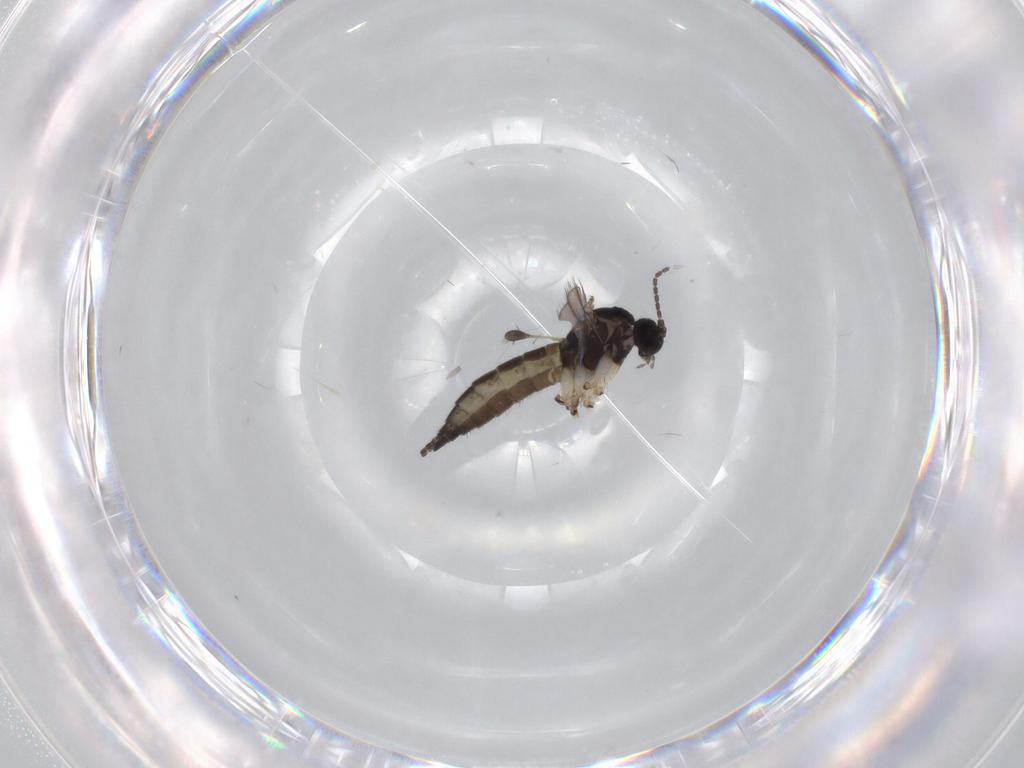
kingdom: Animalia
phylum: Arthropoda
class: Insecta
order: Diptera
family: Sciaridae
